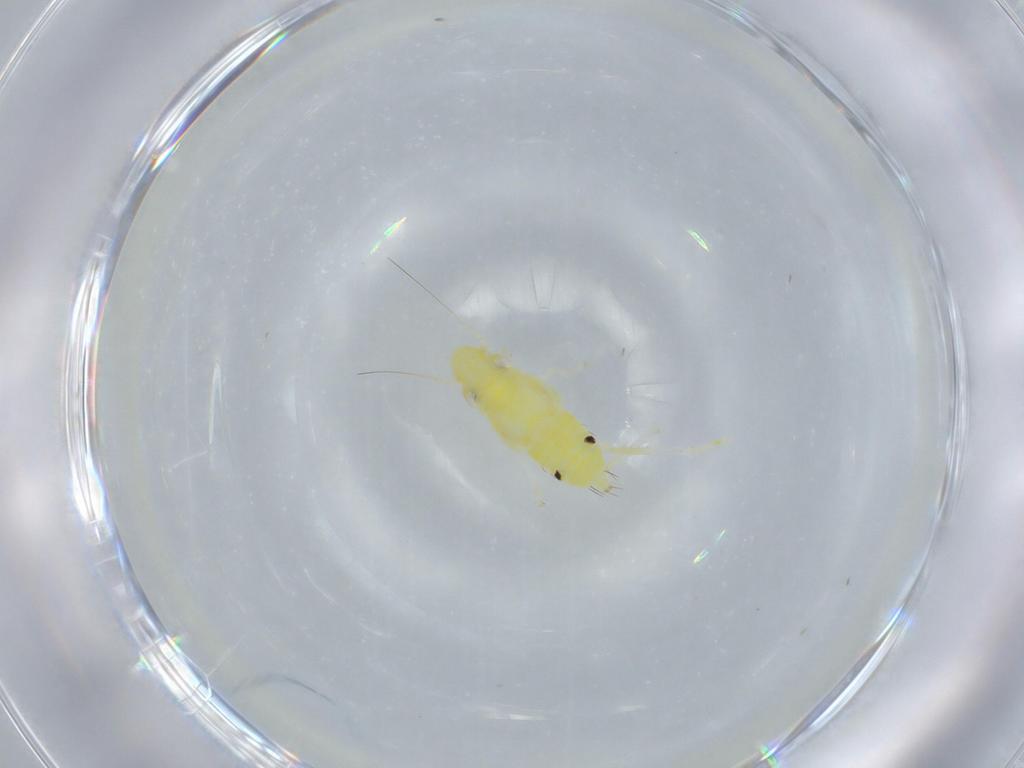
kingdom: Animalia
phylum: Arthropoda
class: Insecta
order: Hemiptera
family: Cicadellidae
